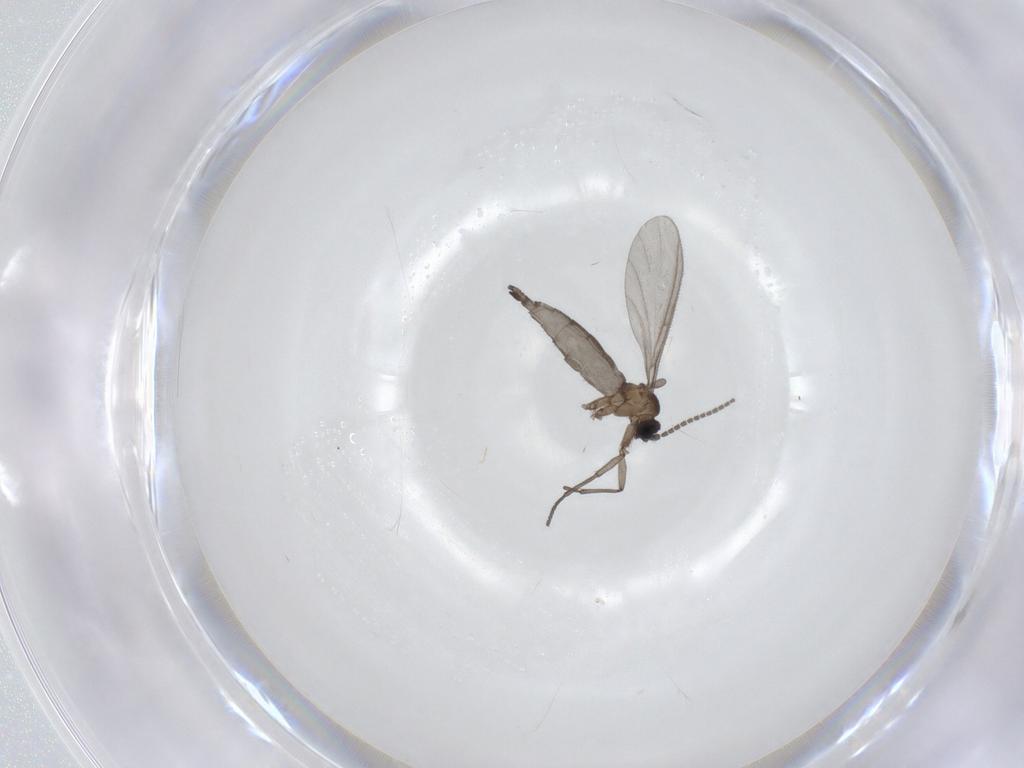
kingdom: Animalia
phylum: Arthropoda
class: Insecta
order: Diptera
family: Sciaridae
